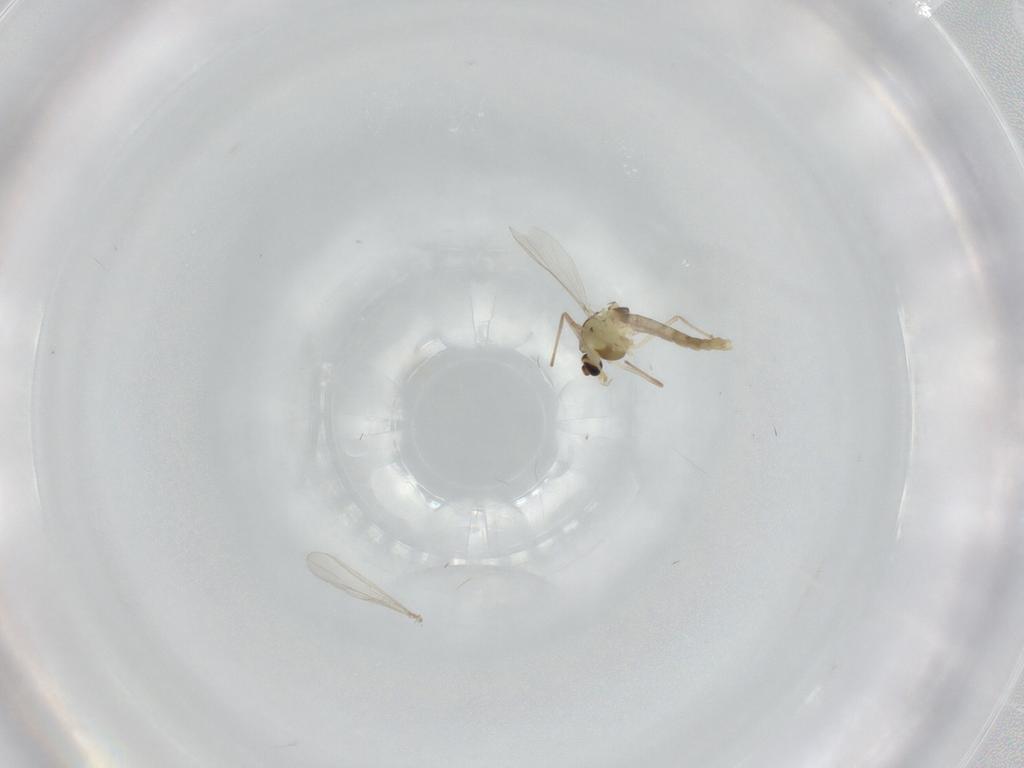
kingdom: Animalia
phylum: Arthropoda
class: Insecta
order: Diptera
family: Chironomidae
